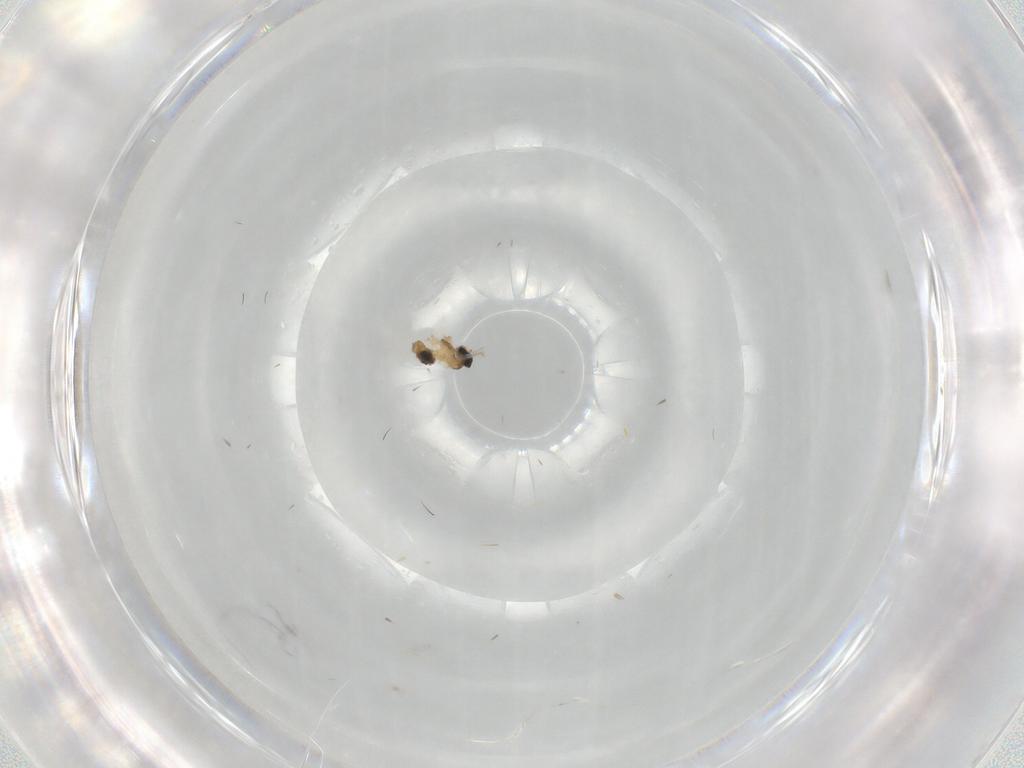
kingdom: Animalia
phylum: Arthropoda
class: Insecta
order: Diptera
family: Cecidomyiidae
